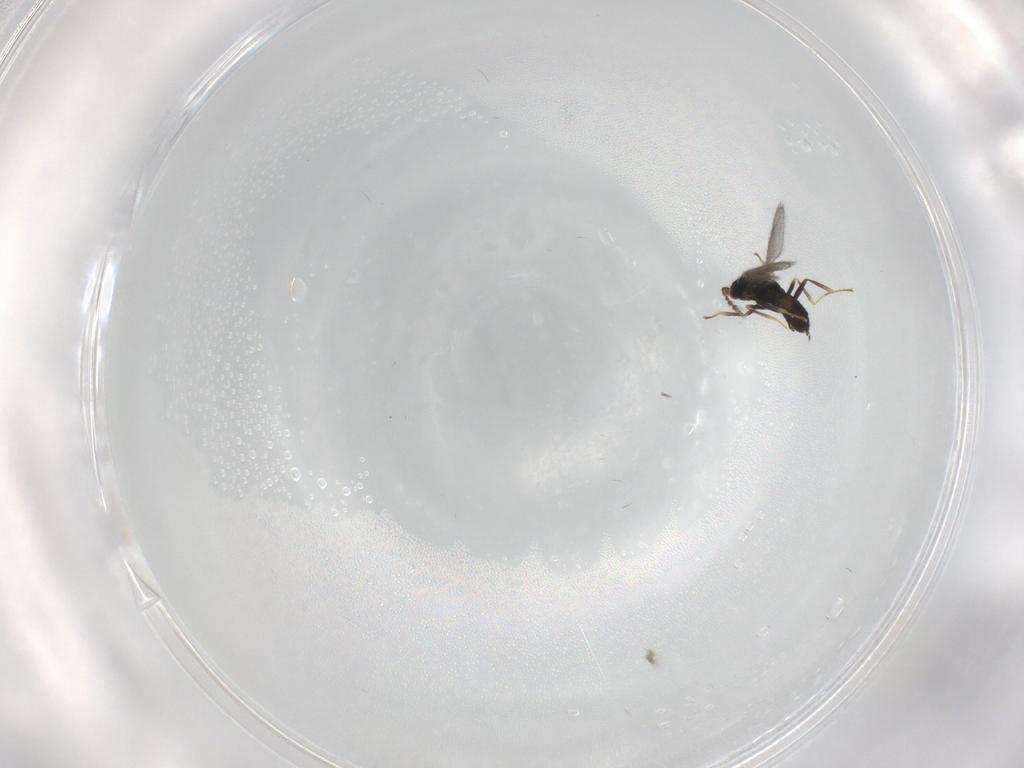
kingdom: Animalia
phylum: Arthropoda
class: Insecta
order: Hymenoptera
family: Eulophidae
